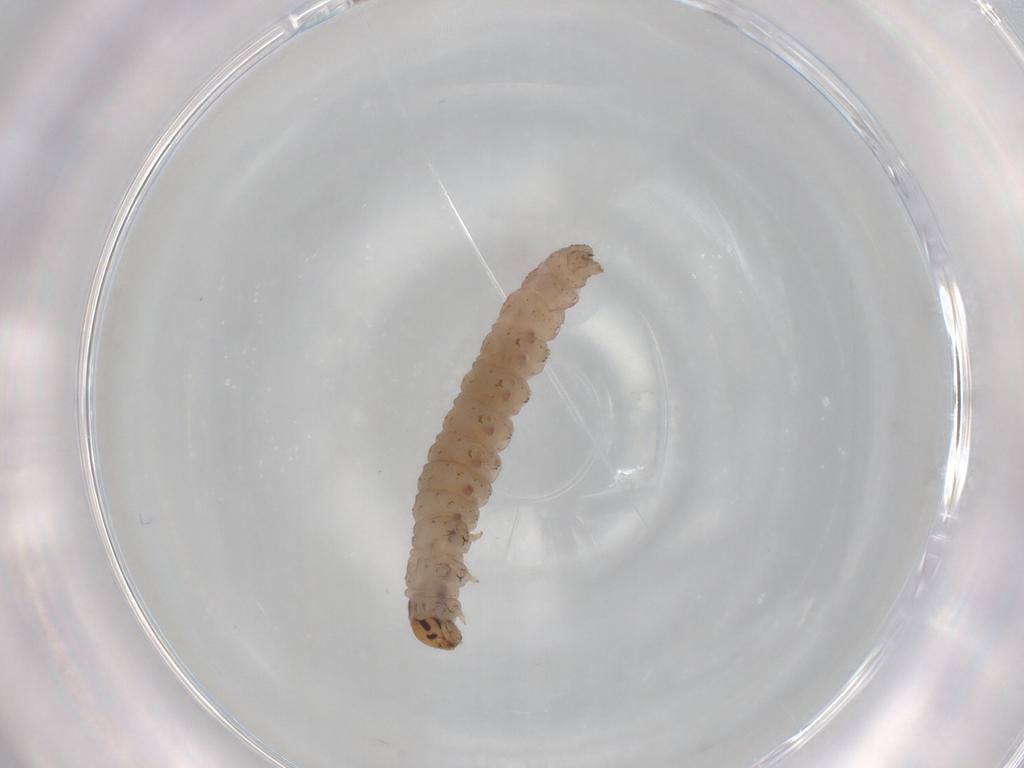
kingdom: Animalia
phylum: Arthropoda
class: Insecta
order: Lepidoptera
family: Tortricidae
